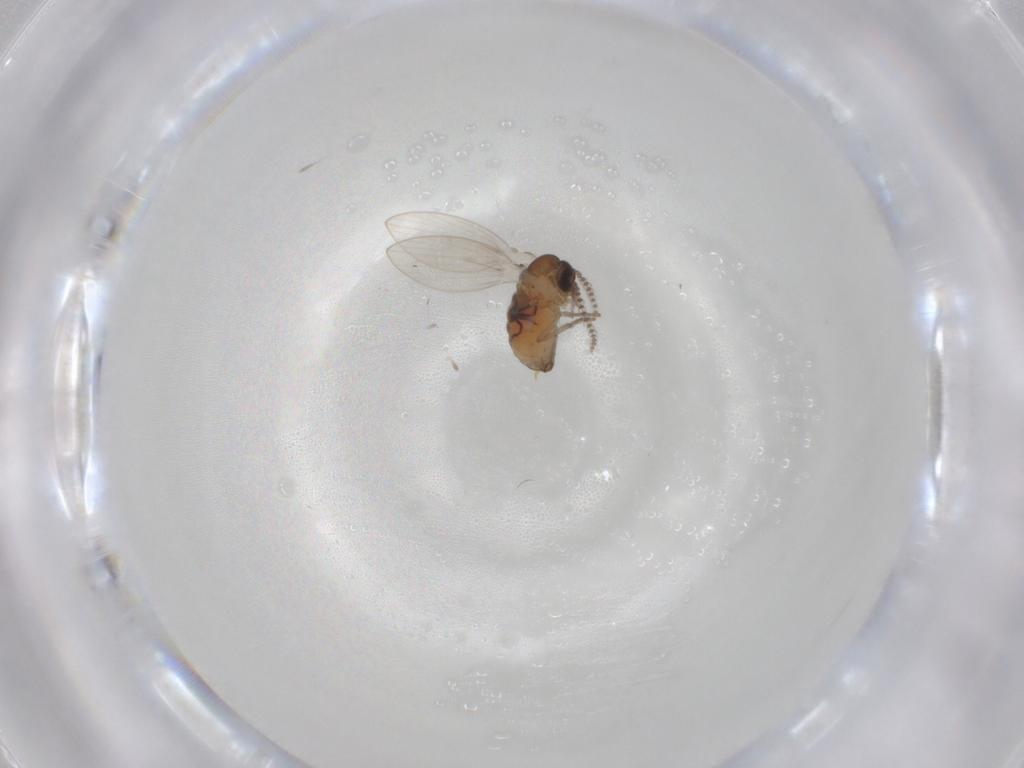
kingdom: Animalia
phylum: Arthropoda
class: Insecta
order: Diptera
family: Psychodidae
